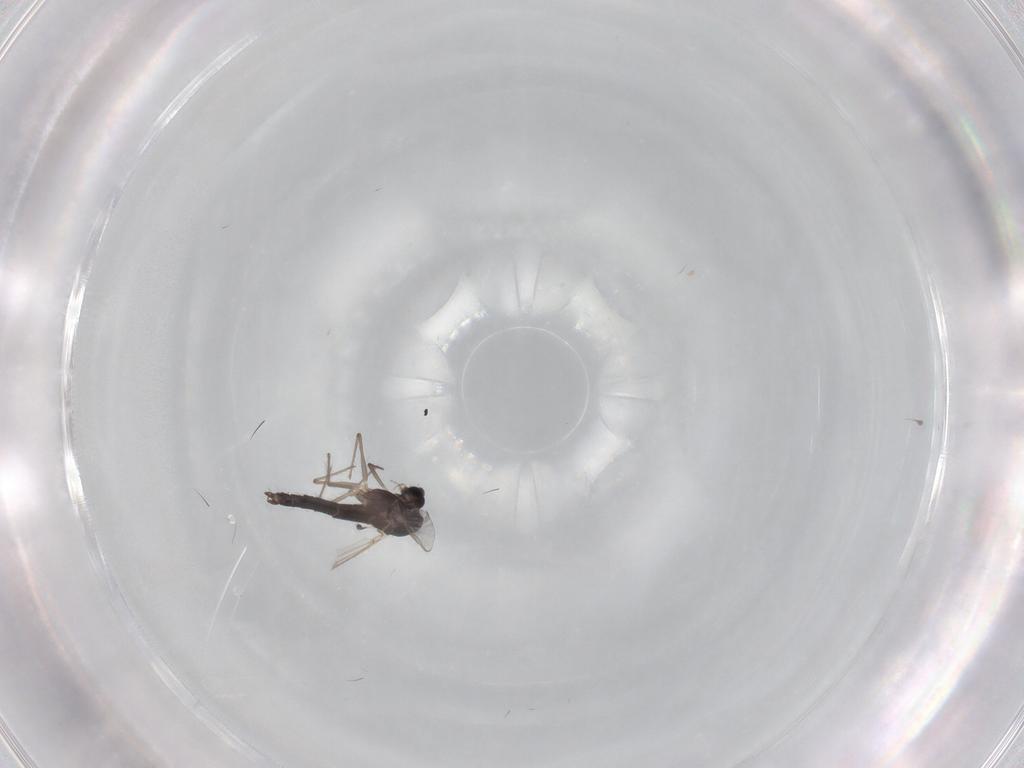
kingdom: Animalia
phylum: Arthropoda
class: Insecta
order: Diptera
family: Chironomidae
